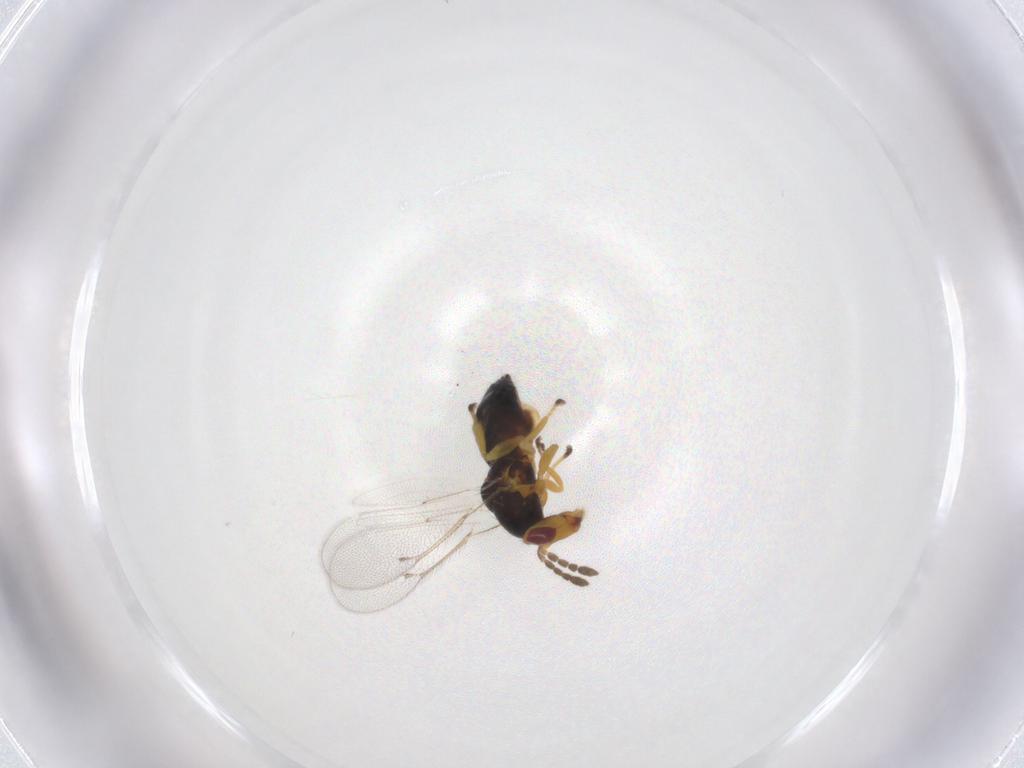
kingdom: Animalia
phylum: Arthropoda
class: Insecta
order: Hymenoptera
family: Eulophidae
